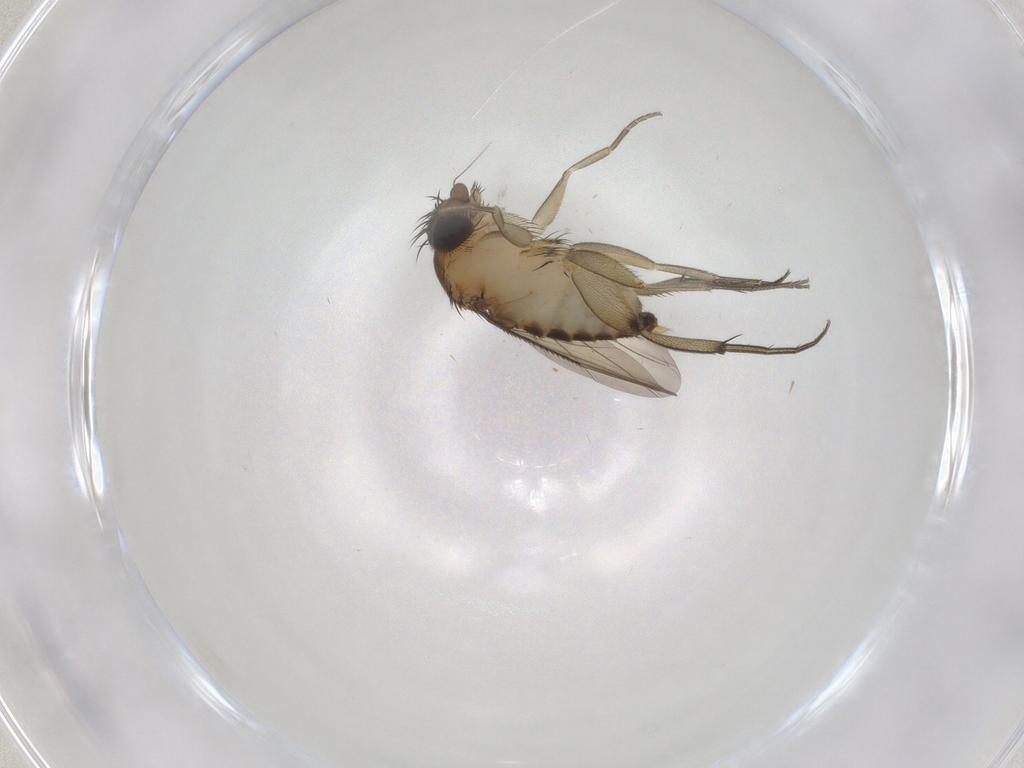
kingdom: Animalia
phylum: Arthropoda
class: Insecta
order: Diptera
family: Phoridae
